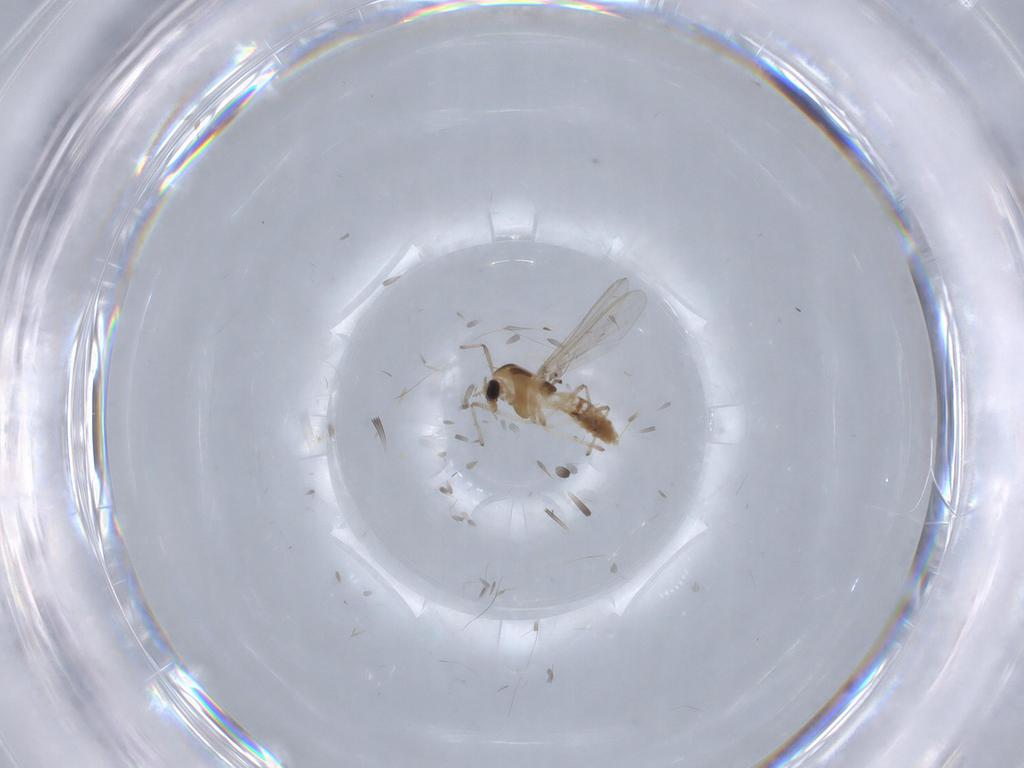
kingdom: Animalia
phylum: Arthropoda
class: Insecta
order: Diptera
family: Chironomidae
